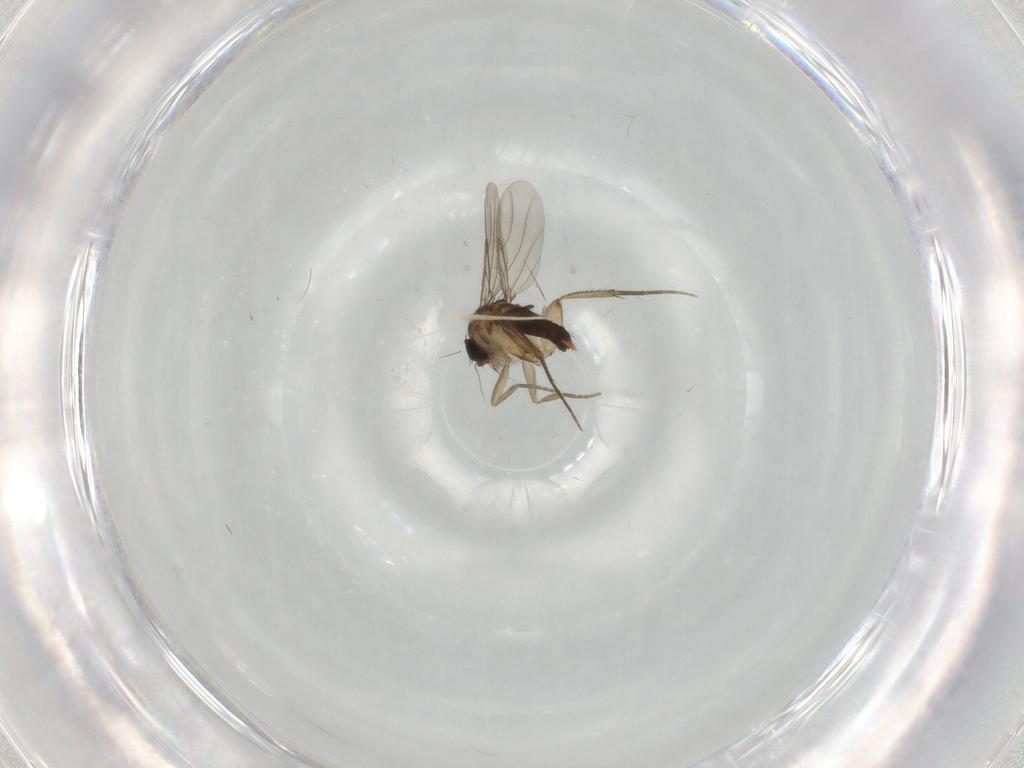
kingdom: Animalia
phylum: Arthropoda
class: Insecta
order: Diptera
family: Phoridae
